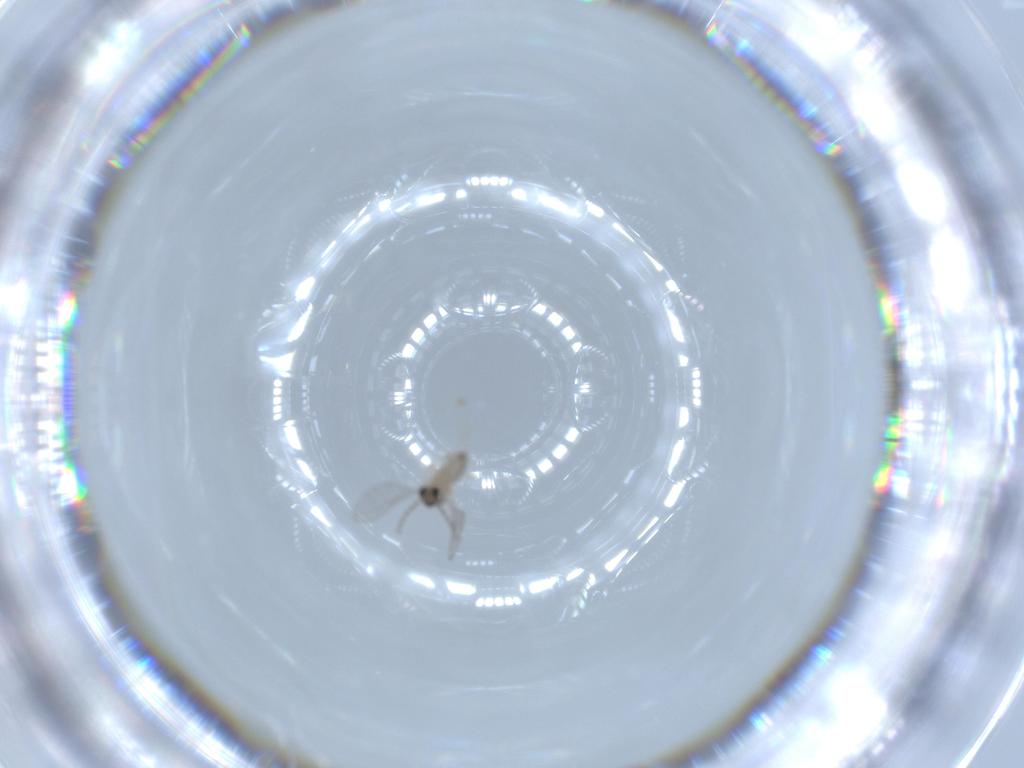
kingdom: Animalia
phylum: Arthropoda
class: Insecta
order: Diptera
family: Cecidomyiidae
